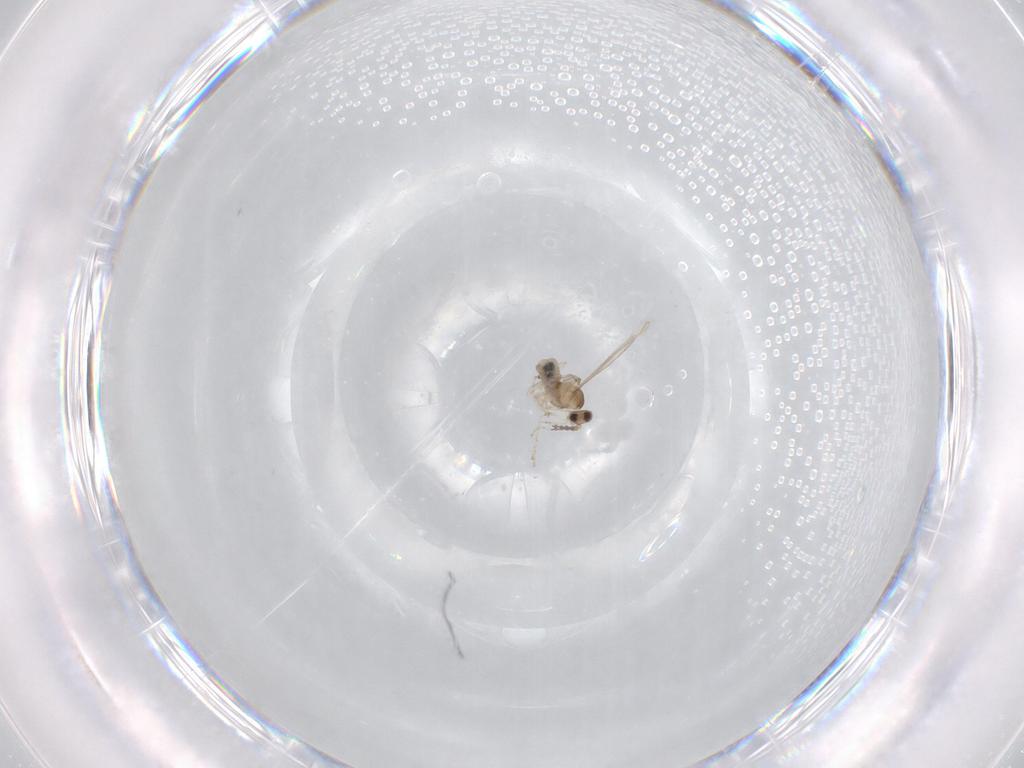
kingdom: Animalia
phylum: Arthropoda
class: Insecta
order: Diptera
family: Cecidomyiidae
